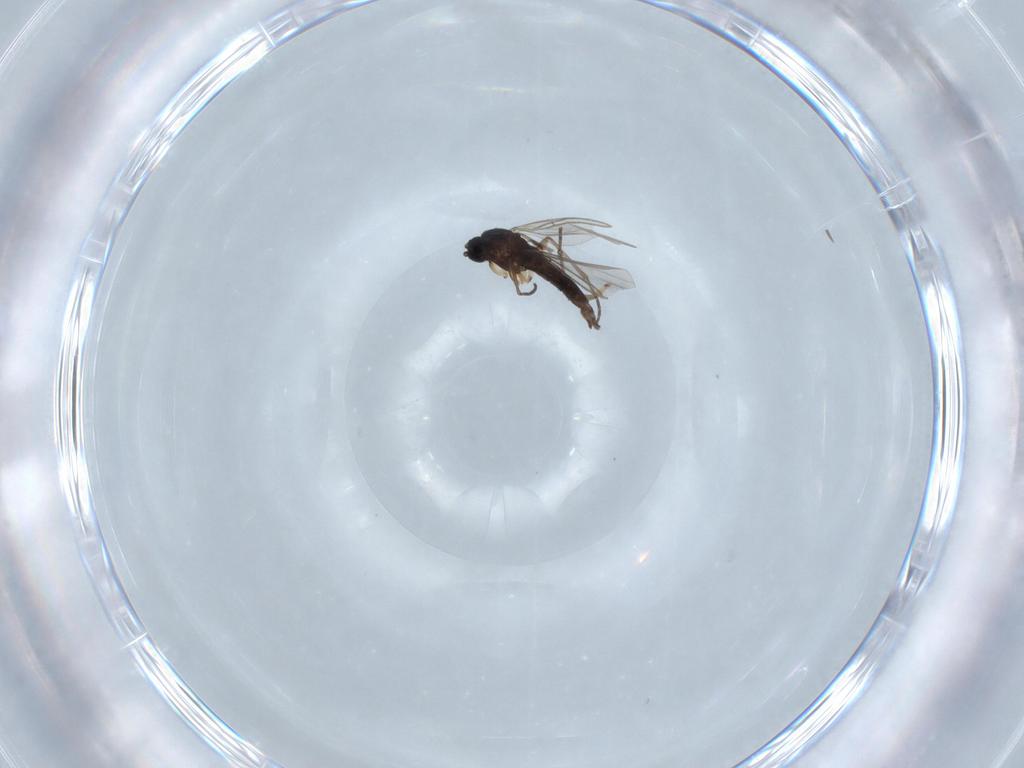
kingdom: Animalia
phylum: Arthropoda
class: Insecta
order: Diptera
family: Sciaridae
